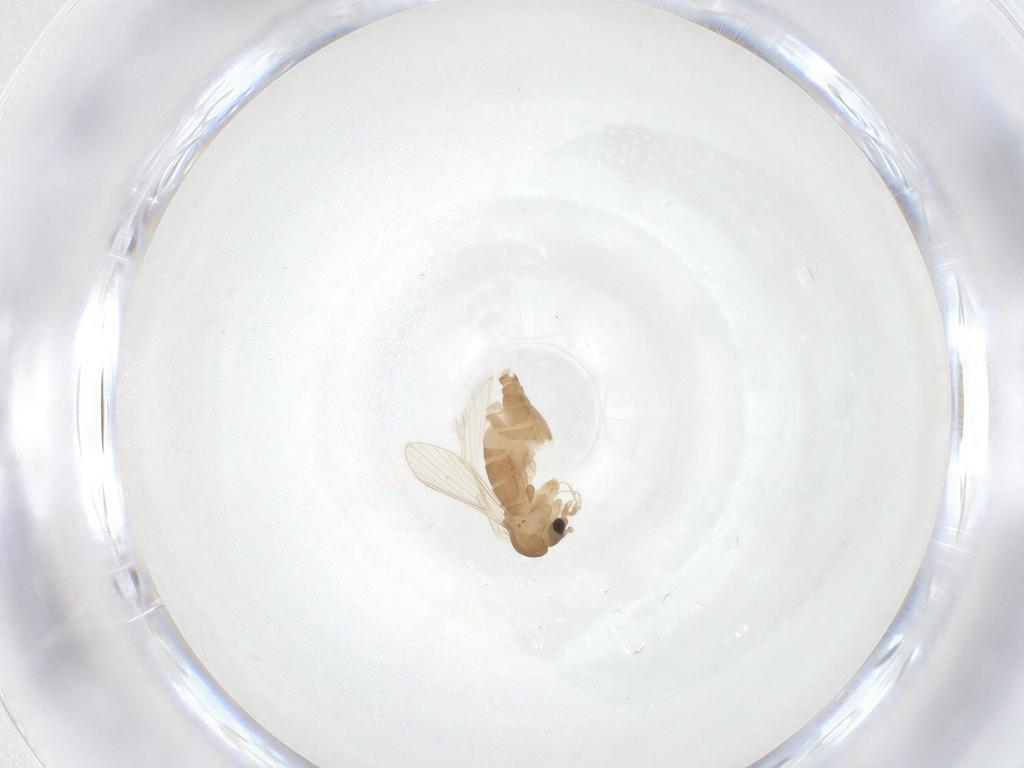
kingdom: Animalia
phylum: Arthropoda
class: Insecta
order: Diptera
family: Psychodidae
